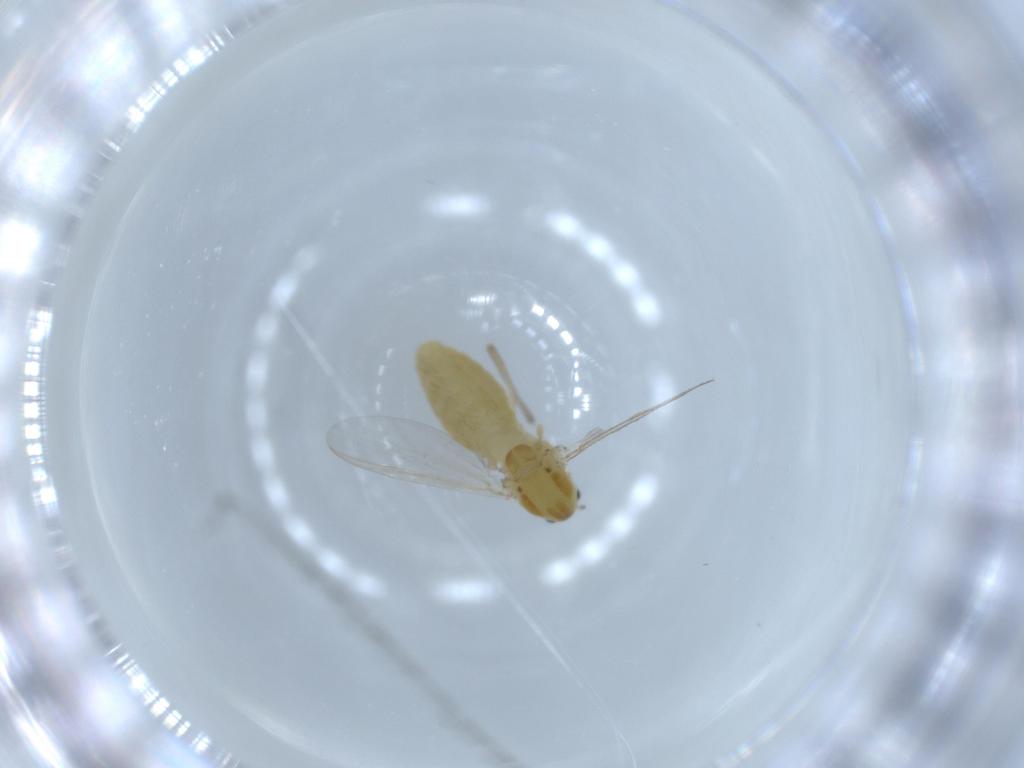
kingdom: Animalia
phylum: Arthropoda
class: Insecta
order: Diptera
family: Chironomidae
